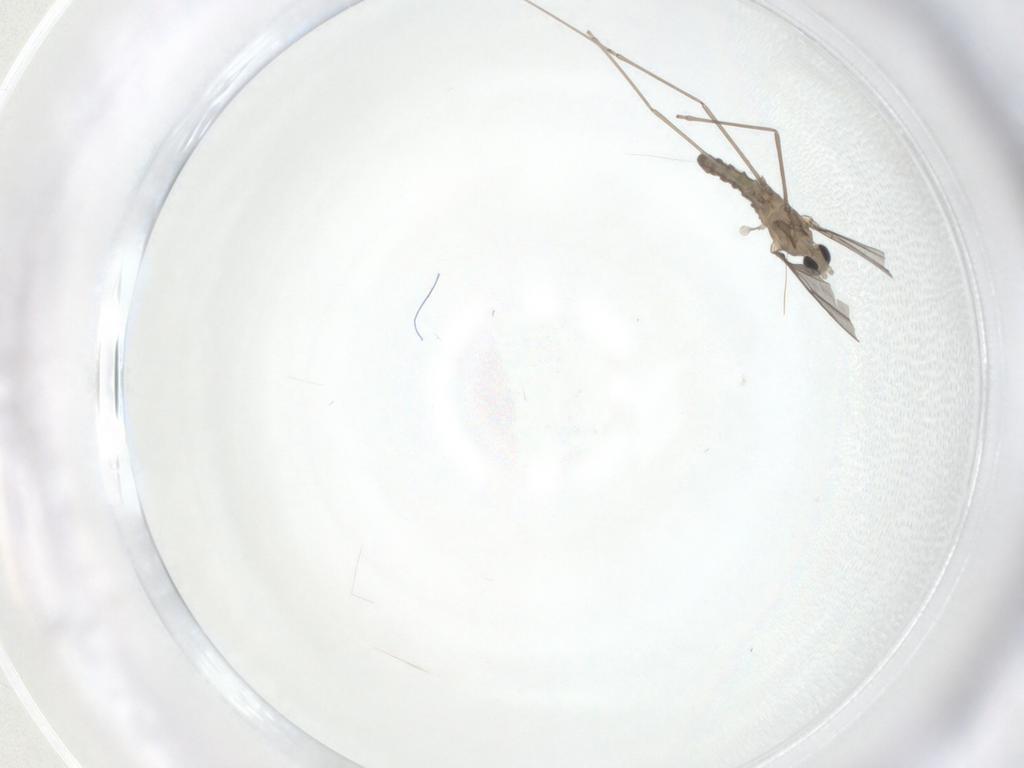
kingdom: Animalia
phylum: Arthropoda
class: Insecta
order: Diptera
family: Cecidomyiidae
